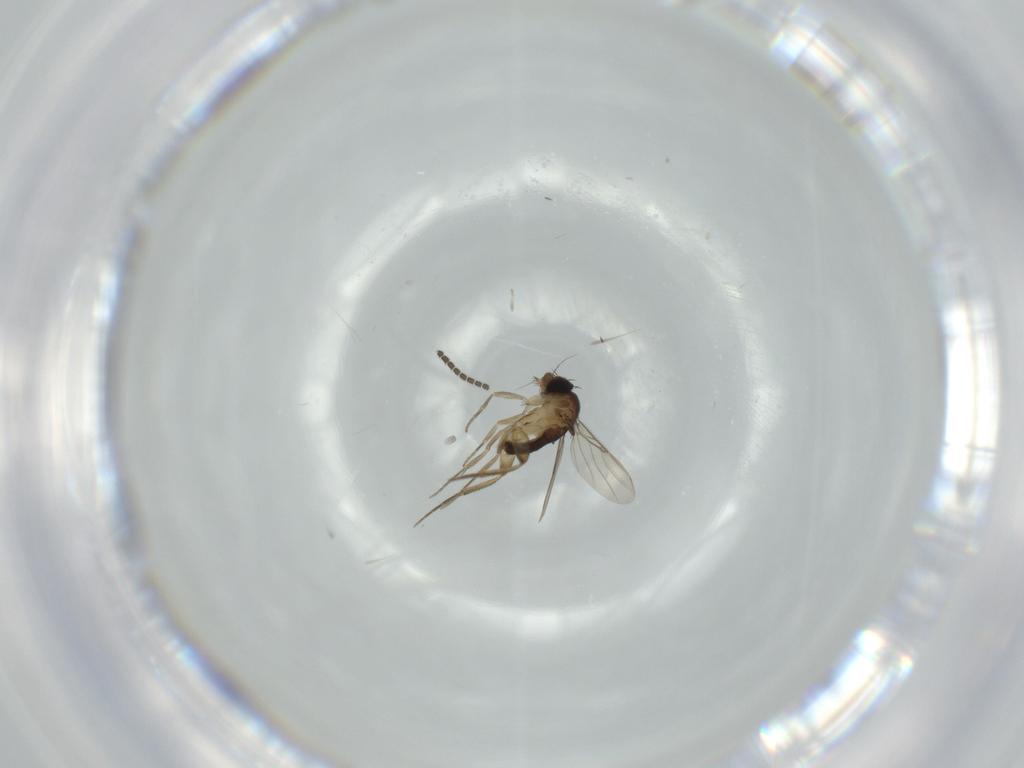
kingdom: Animalia
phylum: Arthropoda
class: Insecta
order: Diptera
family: Phoridae
